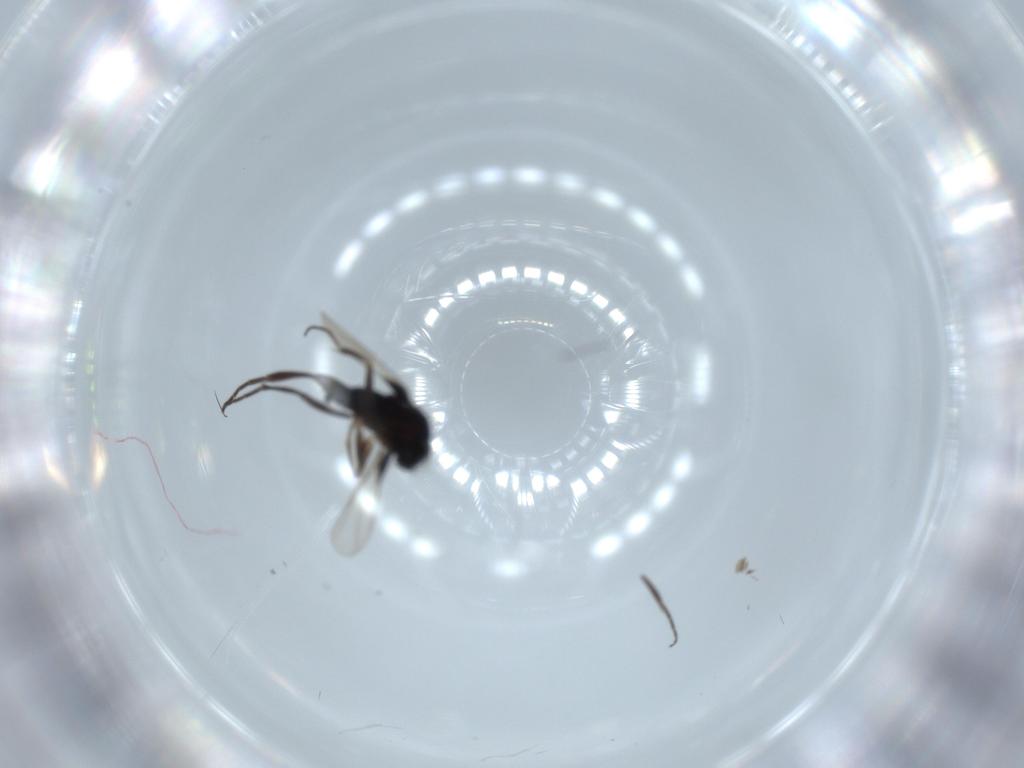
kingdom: Animalia
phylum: Arthropoda
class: Insecta
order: Diptera
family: Scatopsidae
